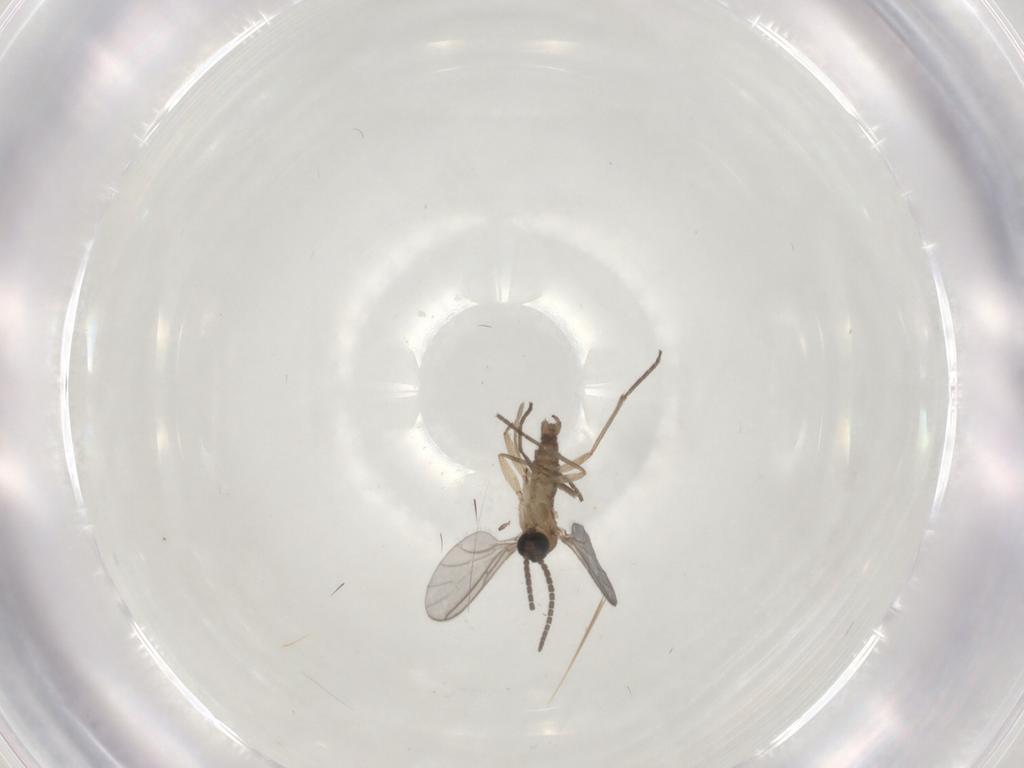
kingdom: Animalia
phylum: Arthropoda
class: Insecta
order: Diptera
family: Sciaridae
